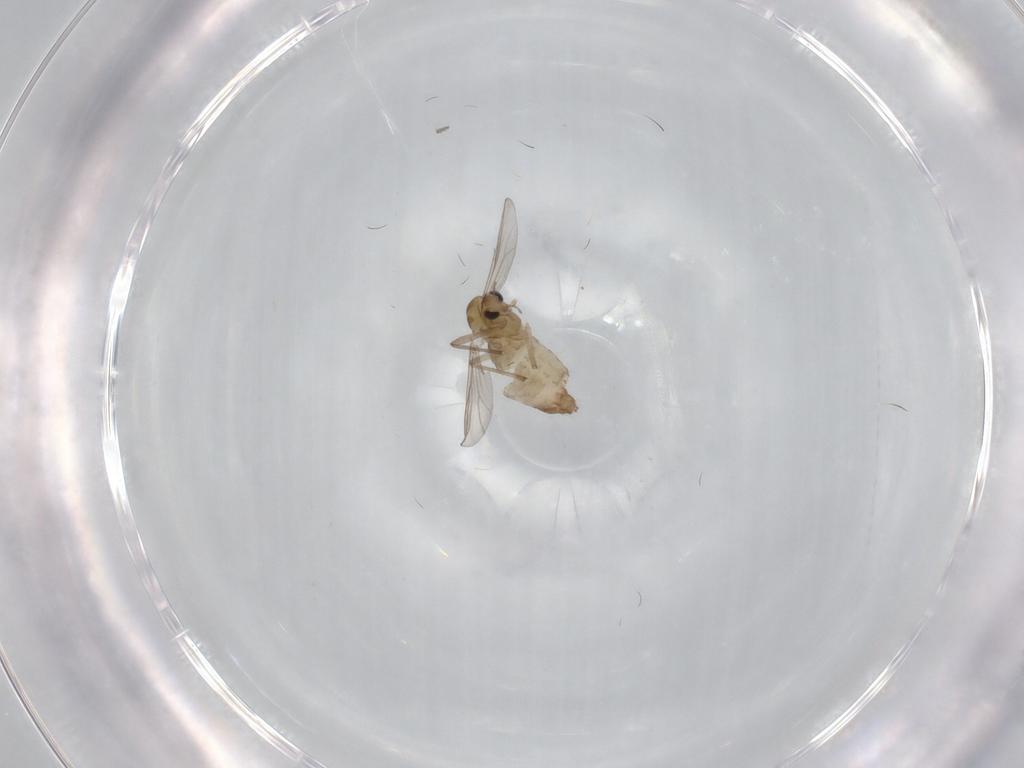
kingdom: Animalia
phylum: Arthropoda
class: Insecta
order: Diptera
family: Chironomidae
